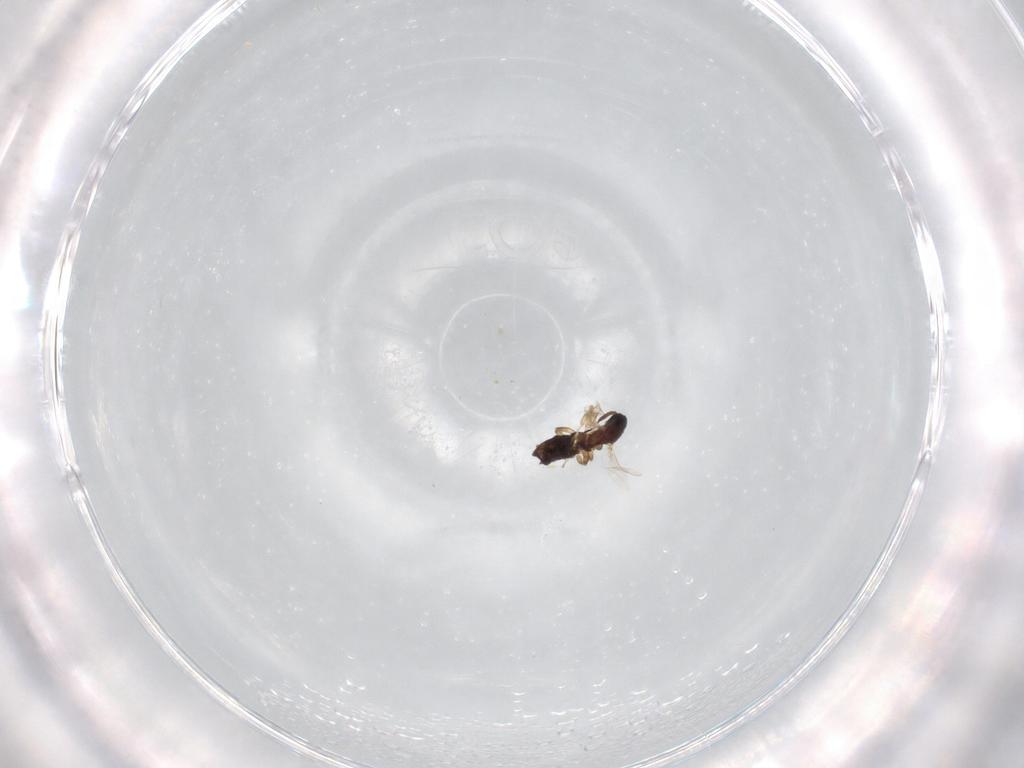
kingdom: Animalia
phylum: Arthropoda
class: Insecta
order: Diptera
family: Scatopsidae
